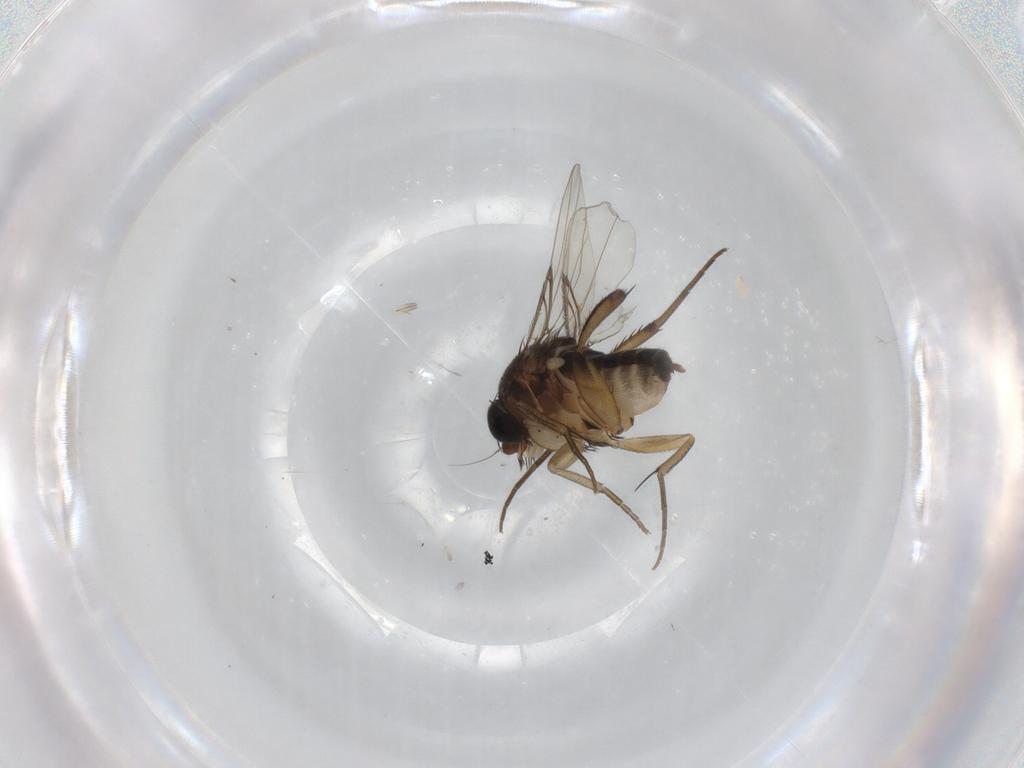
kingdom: Animalia
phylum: Arthropoda
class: Insecta
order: Diptera
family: Phoridae
